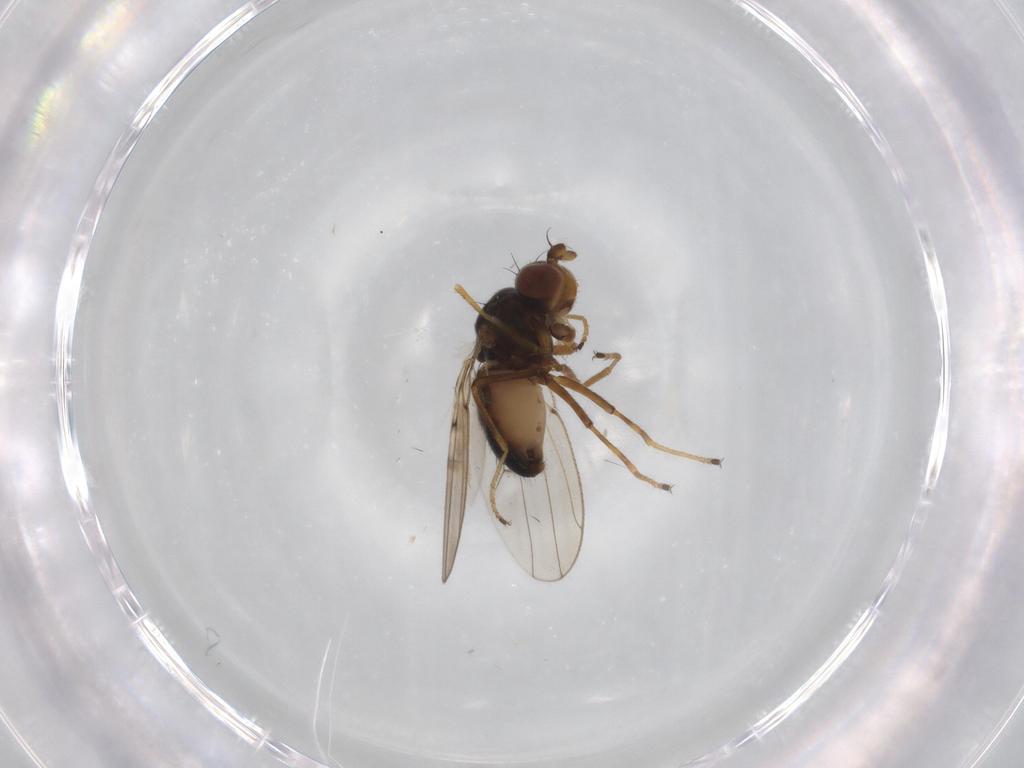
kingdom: Animalia
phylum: Arthropoda
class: Insecta
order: Diptera
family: Ephydridae
